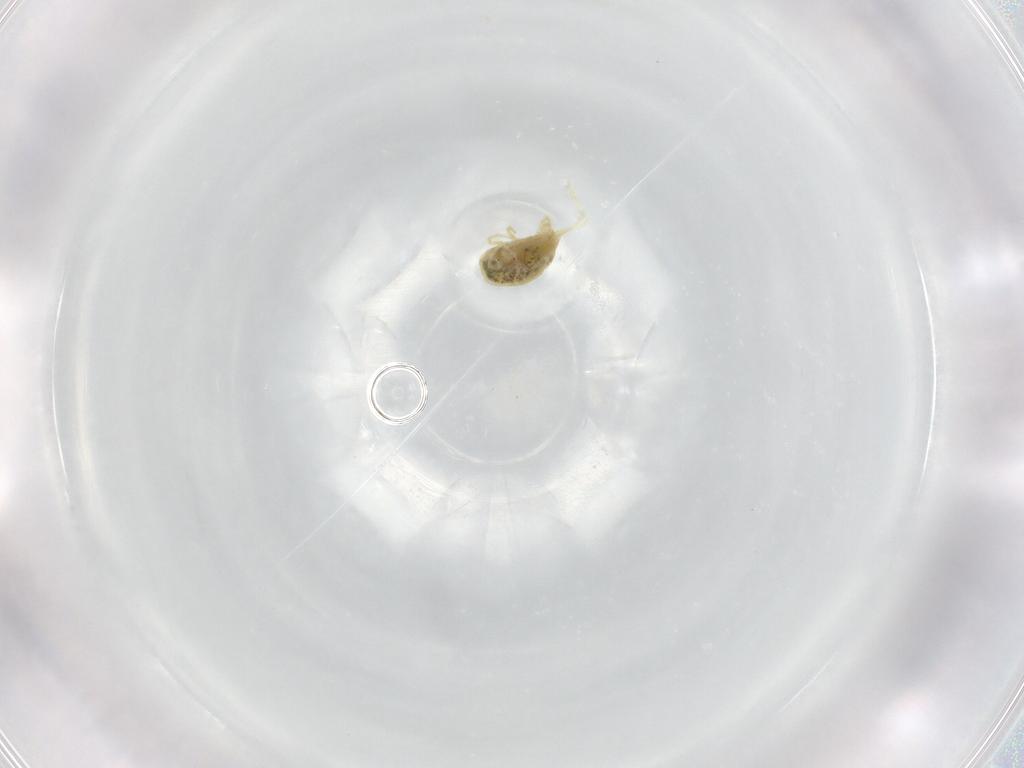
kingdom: Animalia
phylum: Arthropoda
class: Arachnida
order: Trombidiformes
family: Tetranychidae
